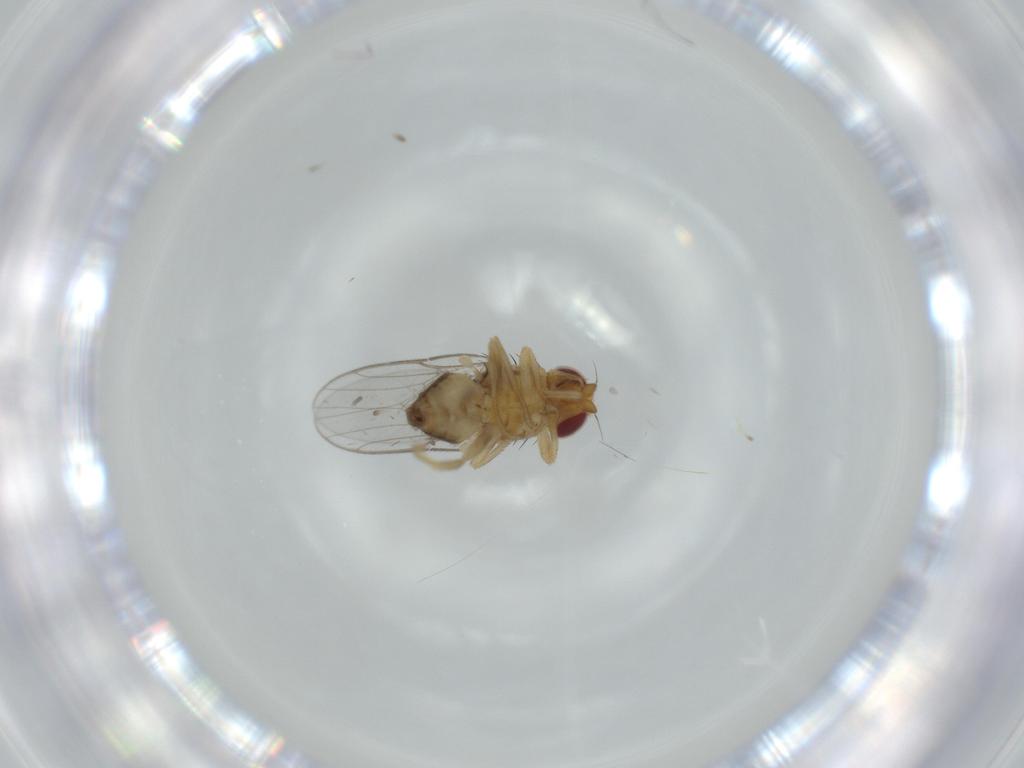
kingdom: Animalia
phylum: Arthropoda
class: Insecta
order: Diptera
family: Chloropidae
